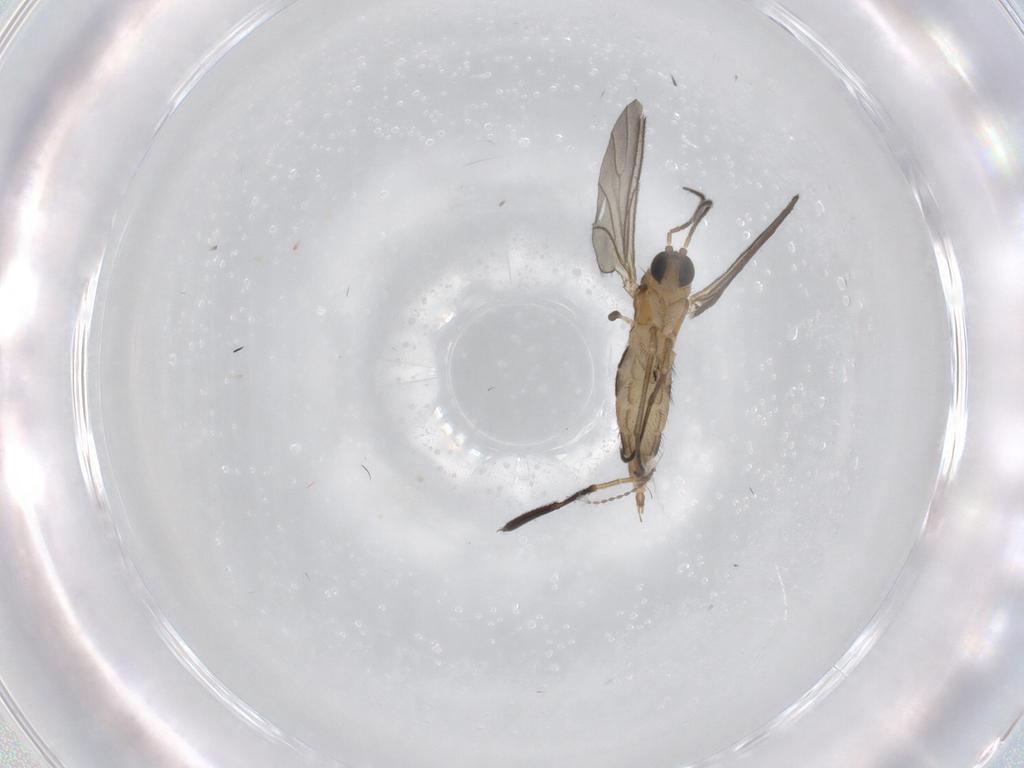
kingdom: Animalia
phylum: Arthropoda
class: Insecta
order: Diptera
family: Milichiidae
